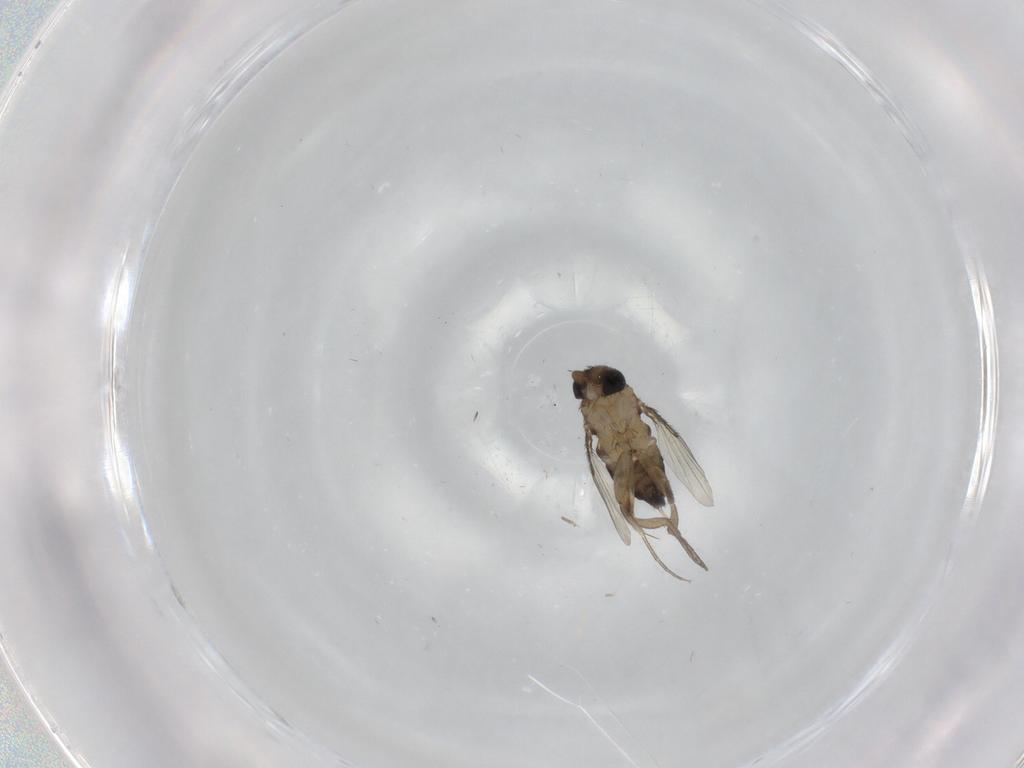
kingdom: Animalia
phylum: Arthropoda
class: Insecta
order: Diptera
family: Phoridae
